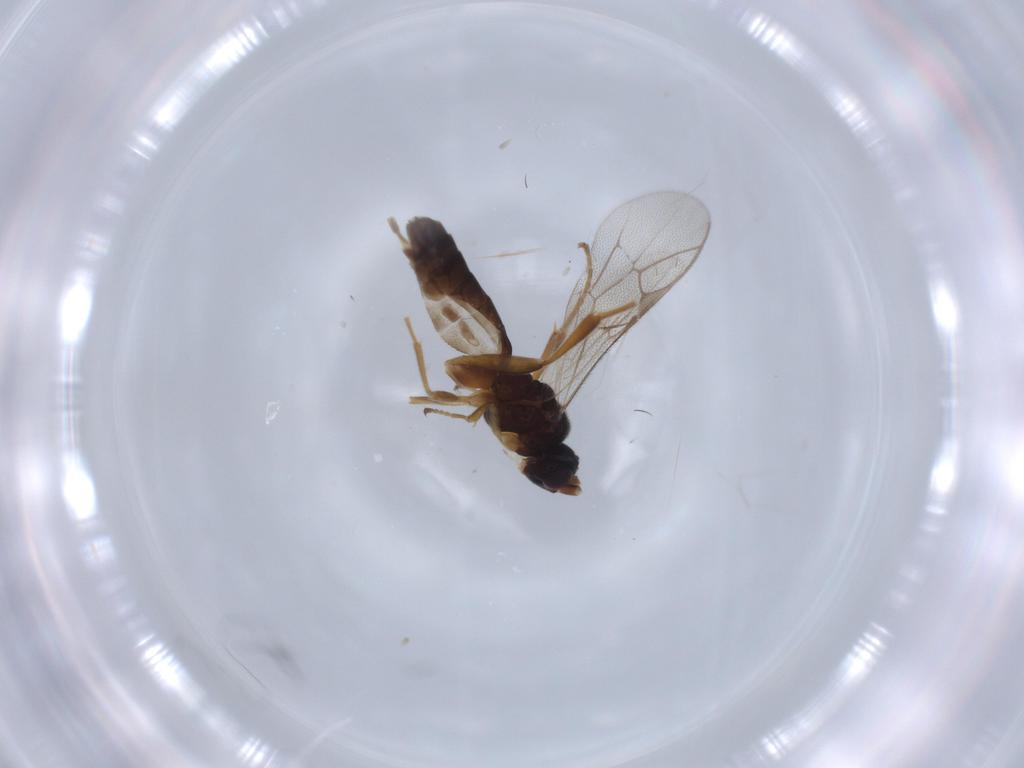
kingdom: Animalia
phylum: Arthropoda
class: Insecta
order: Hymenoptera
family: Ichneumonidae
